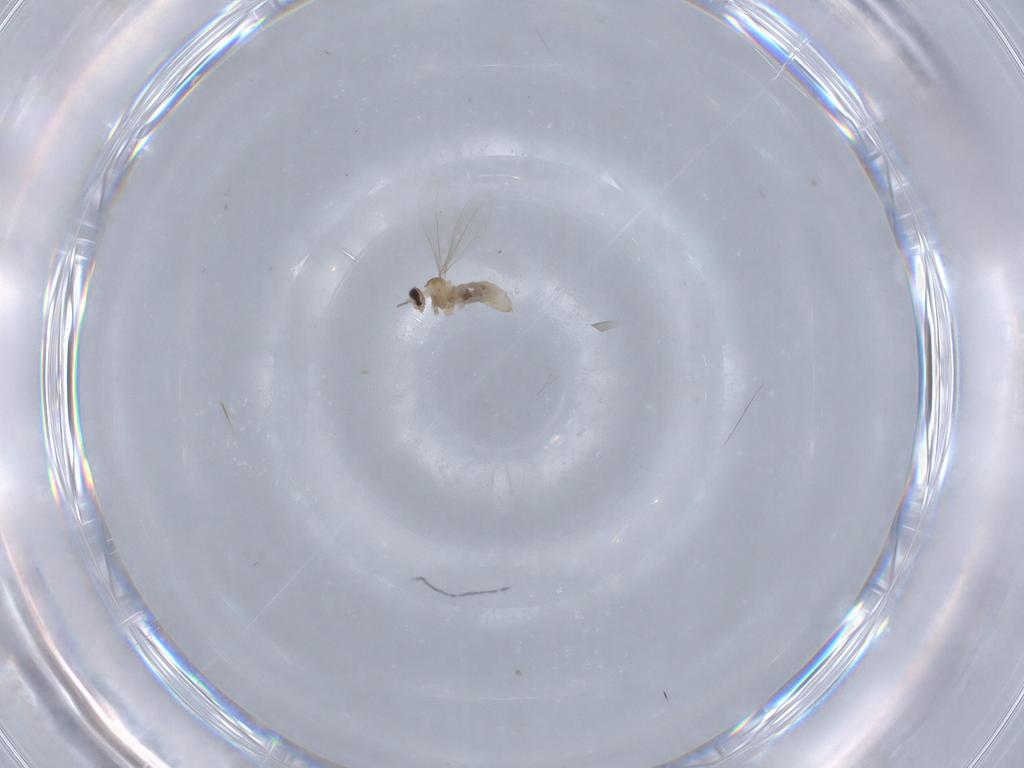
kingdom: Animalia
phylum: Arthropoda
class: Insecta
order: Diptera
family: Cecidomyiidae
